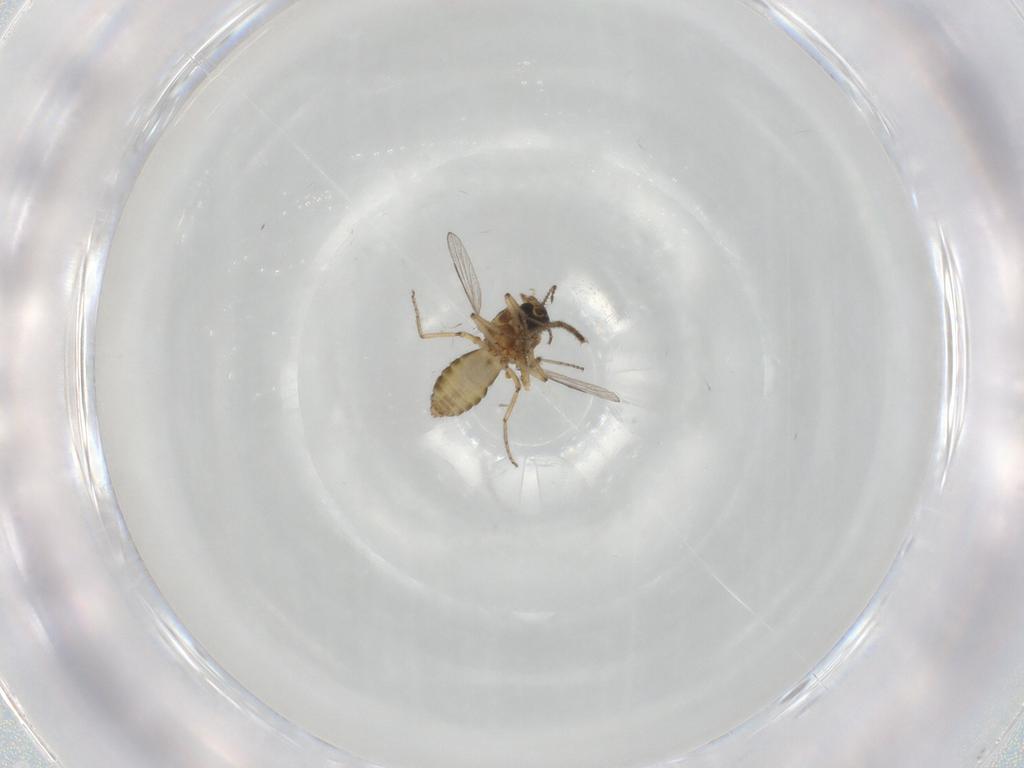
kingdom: Animalia
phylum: Arthropoda
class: Insecta
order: Diptera
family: Ceratopogonidae
